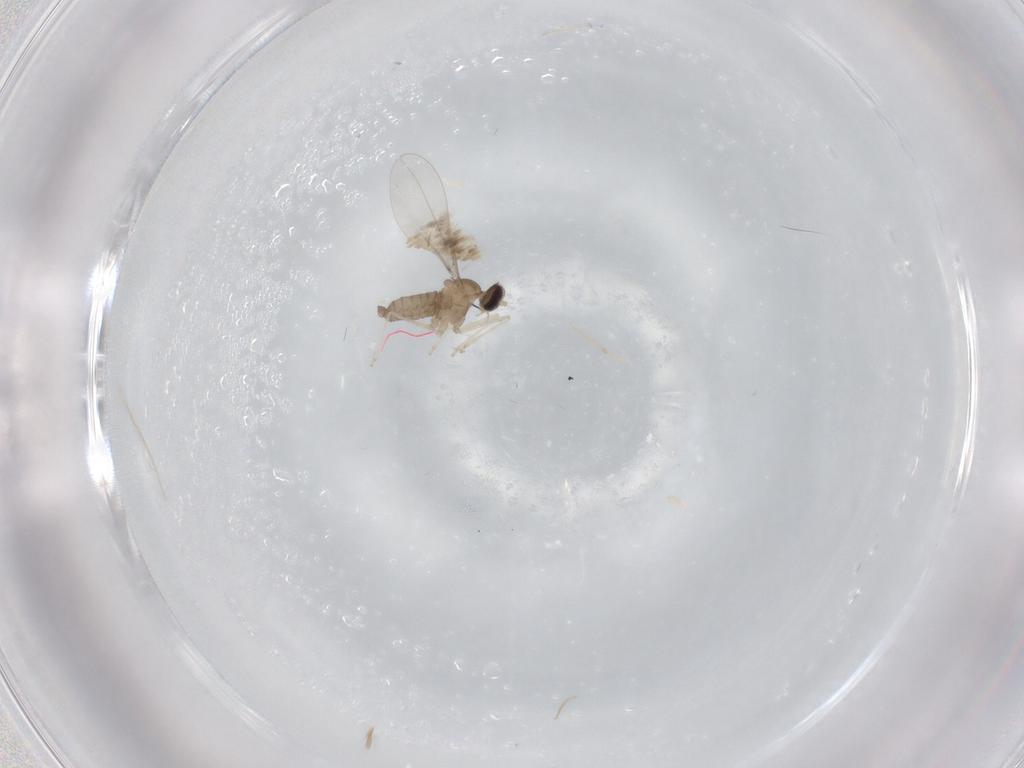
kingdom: Animalia
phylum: Arthropoda
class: Insecta
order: Diptera
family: Cecidomyiidae
